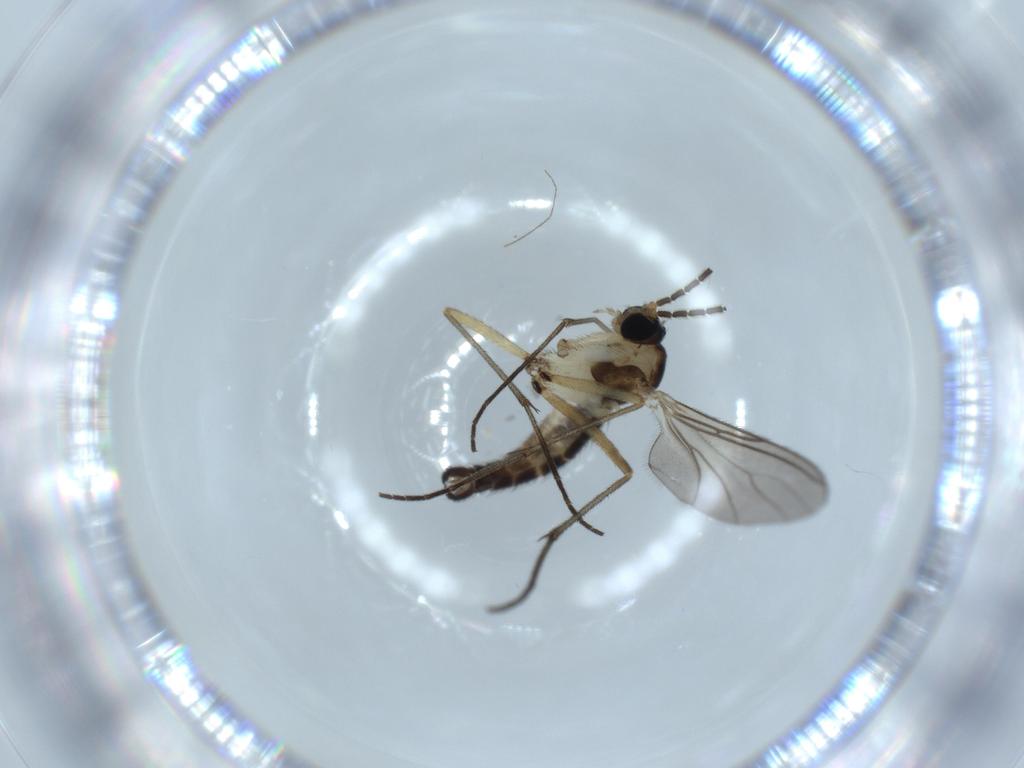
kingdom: Animalia
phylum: Arthropoda
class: Insecta
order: Diptera
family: Sciaridae
